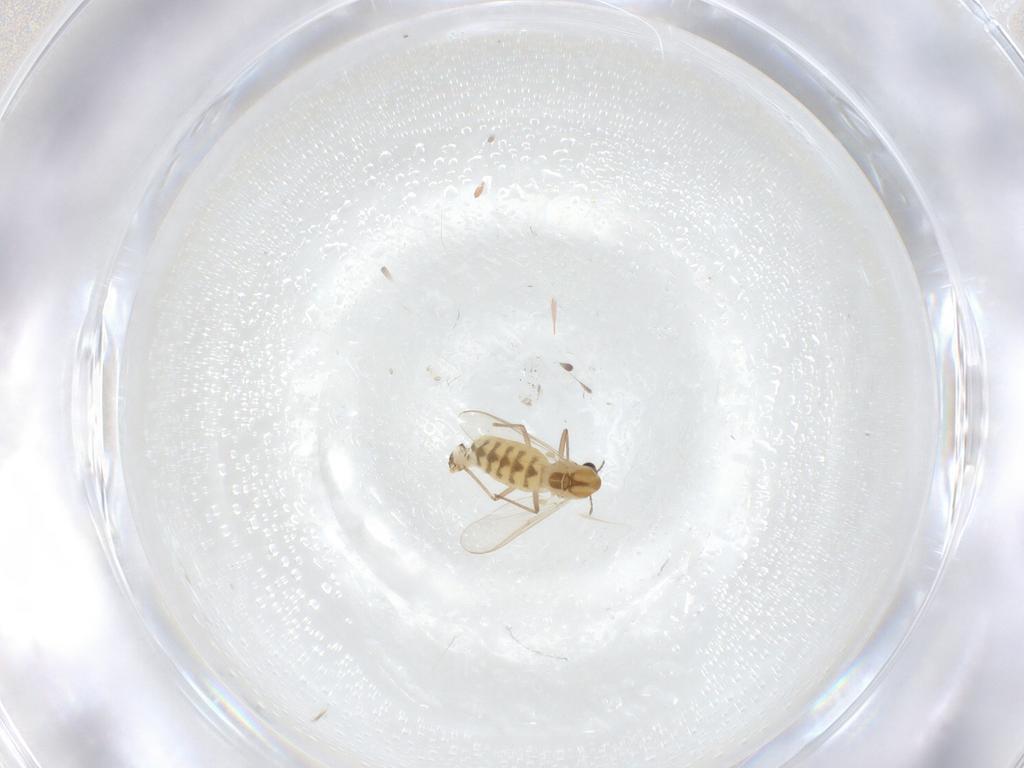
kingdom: Animalia
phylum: Arthropoda
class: Insecta
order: Diptera
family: Chironomidae
